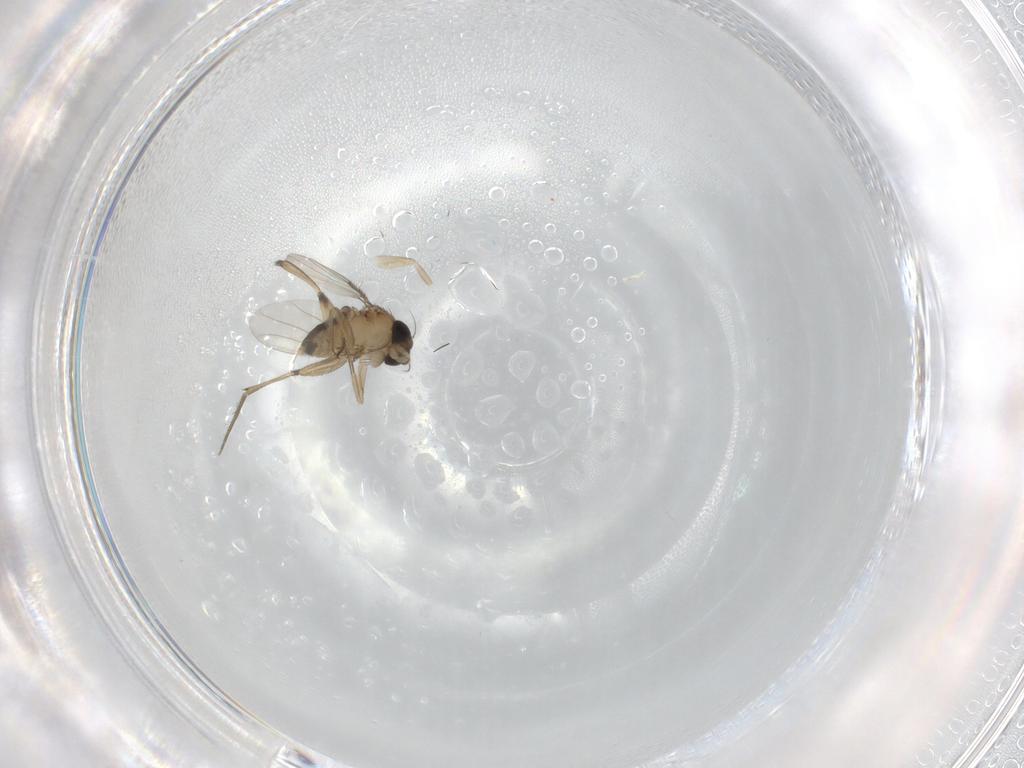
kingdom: Animalia
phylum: Arthropoda
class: Insecta
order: Diptera
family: Phoridae
